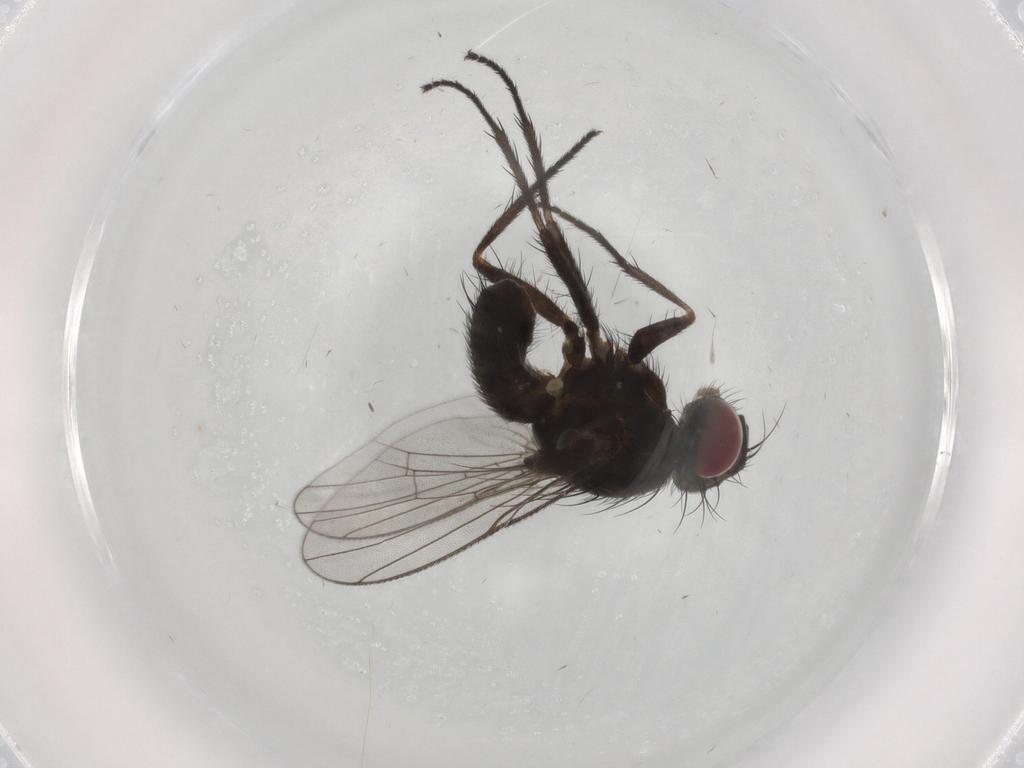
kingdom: Animalia
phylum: Arthropoda
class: Insecta
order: Diptera
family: Muscidae
